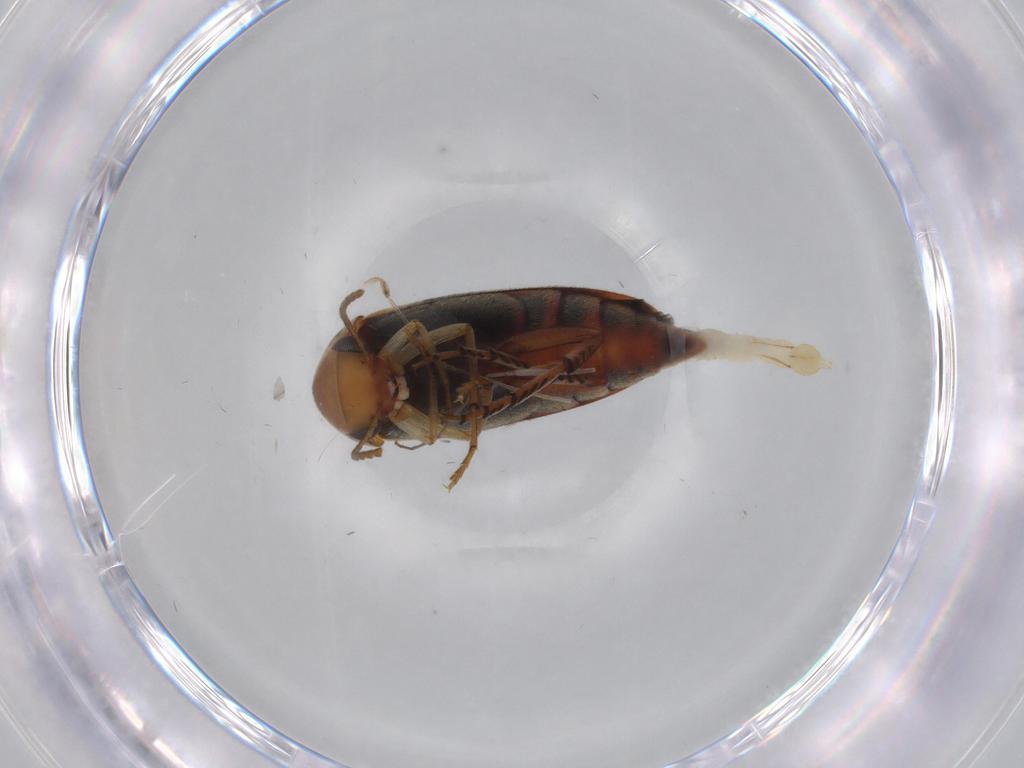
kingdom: Animalia
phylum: Arthropoda
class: Insecta
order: Coleoptera
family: Mordellidae
